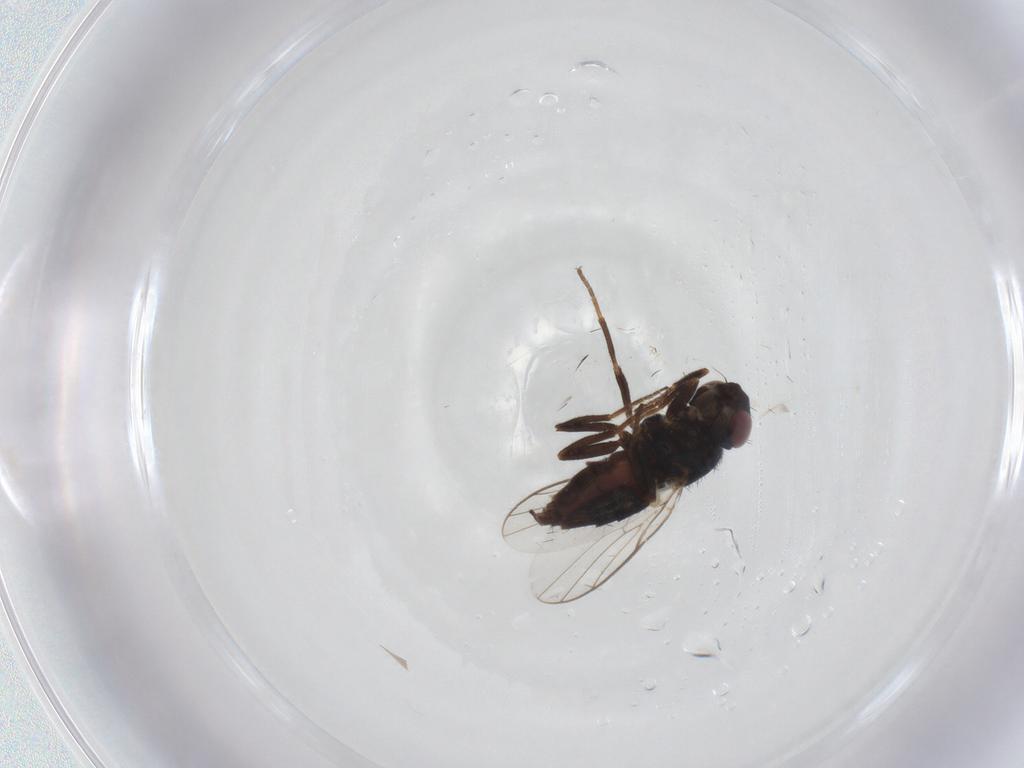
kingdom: Animalia
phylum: Arthropoda
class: Insecta
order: Diptera
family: Chloropidae
